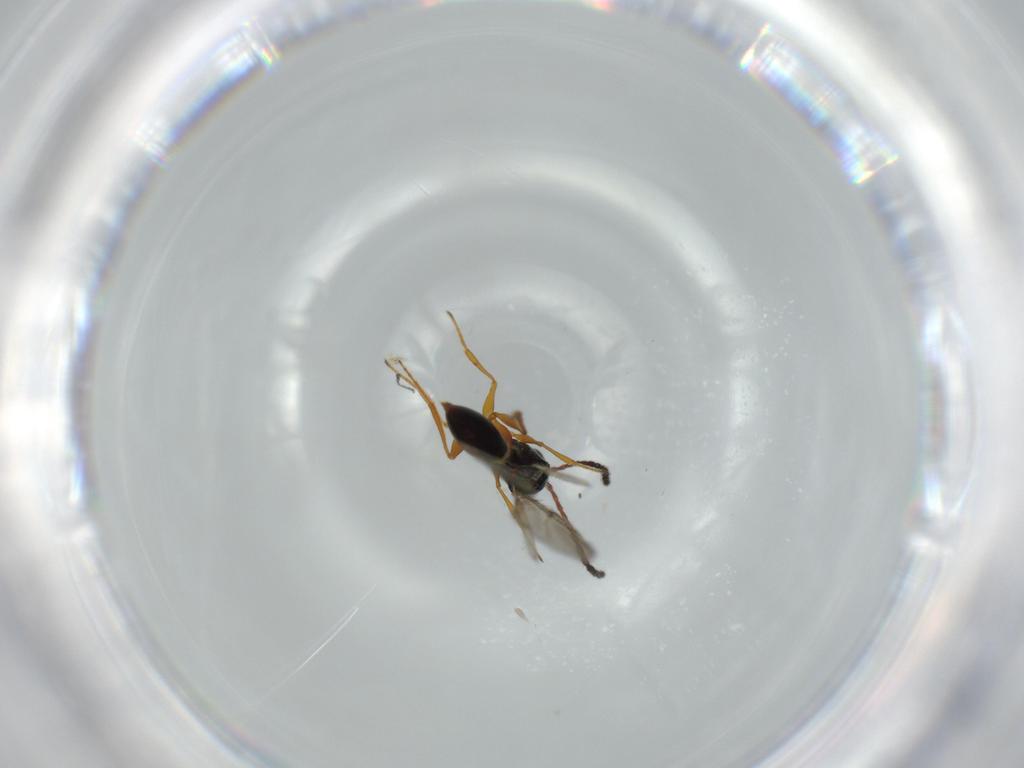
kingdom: Animalia
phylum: Arthropoda
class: Insecta
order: Hymenoptera
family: Figitidae
